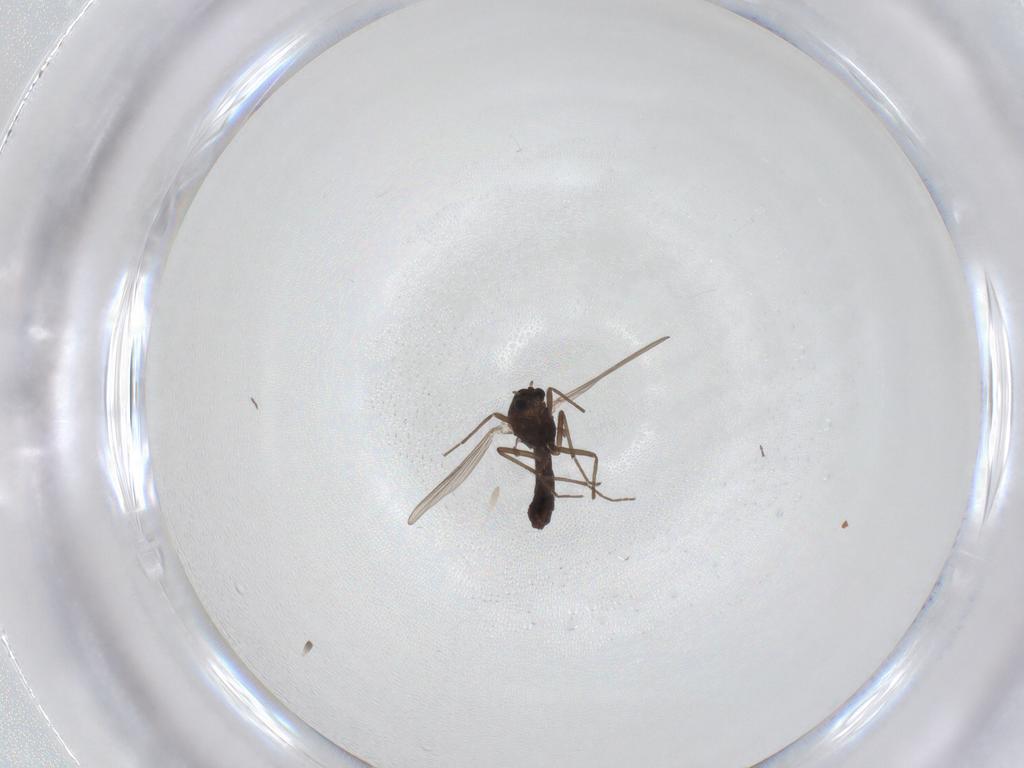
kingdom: Animalia
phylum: Arthropoda
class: Insecta
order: Diptera
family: Chironomidae
